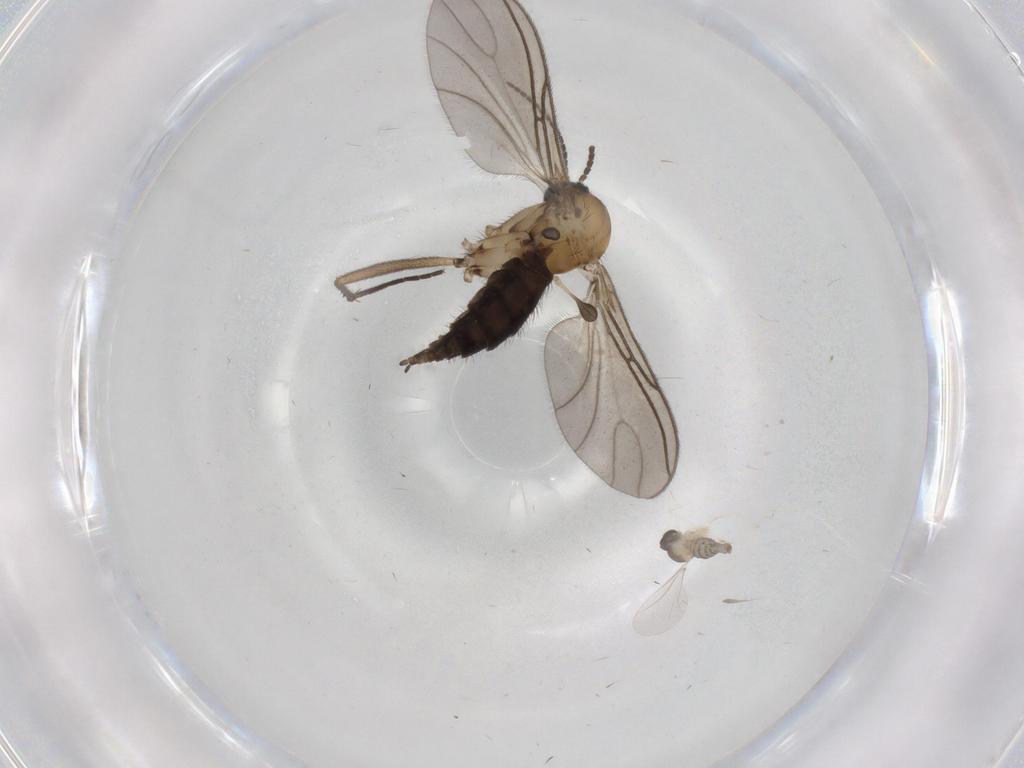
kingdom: Animalia
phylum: Arthropoda
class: Insecta
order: Diptera
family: Cecidomyiidae
